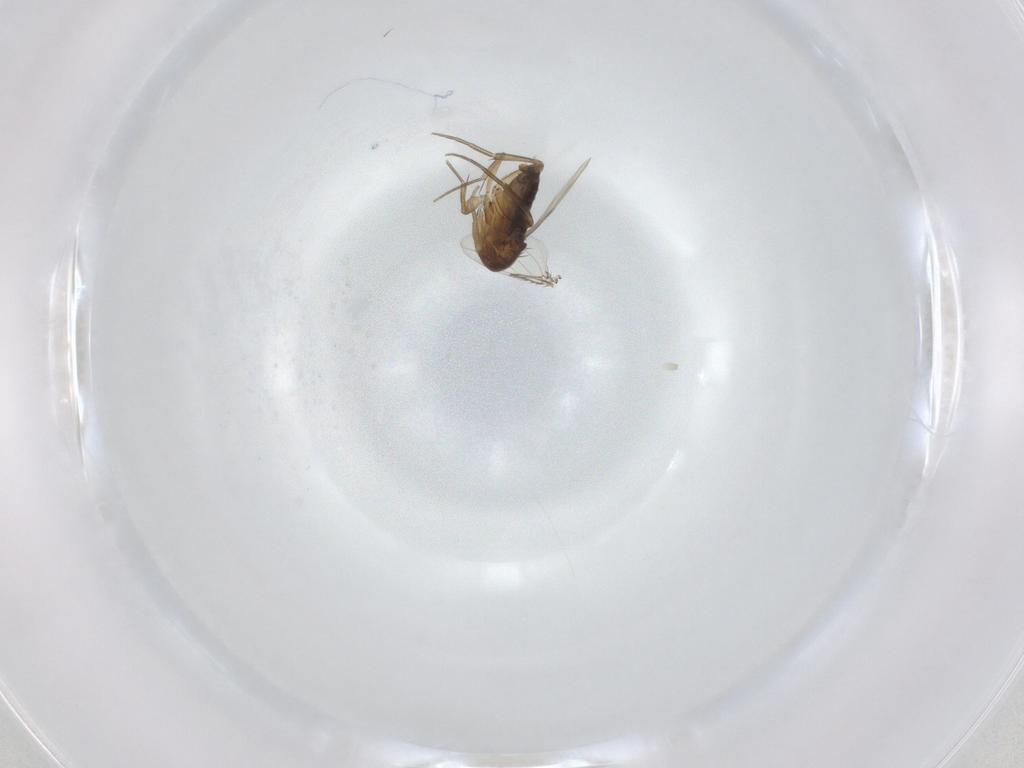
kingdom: Animalia
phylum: Arthropoda
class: Insecta
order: Diptera
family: Phoridae
